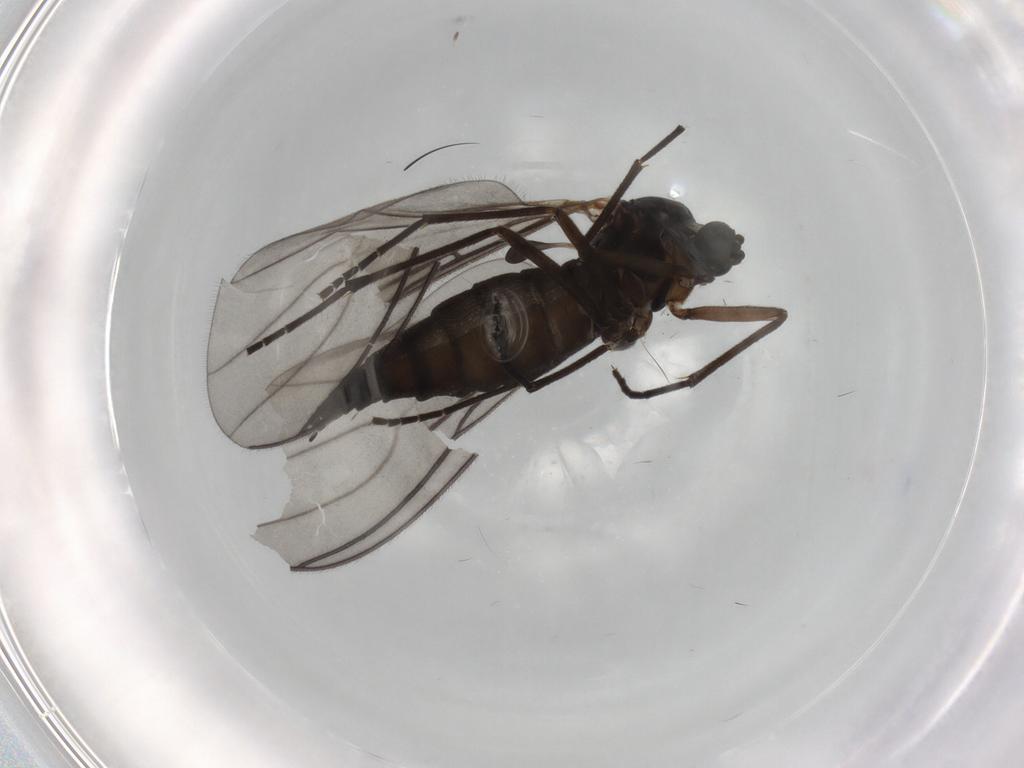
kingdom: Animalia
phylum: Arthropoda
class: Insecta
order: Diptera
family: Sciaridae
